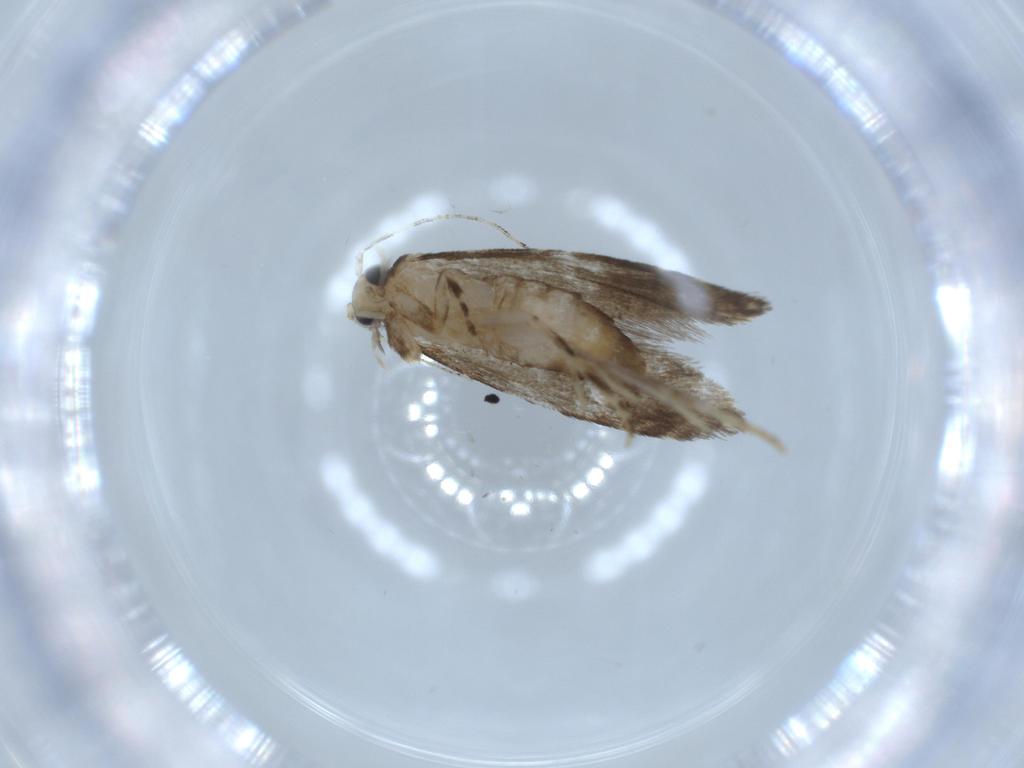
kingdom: Animalia
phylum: Arthropoda
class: Insecta
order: Lepidoptera
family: Tineidae
